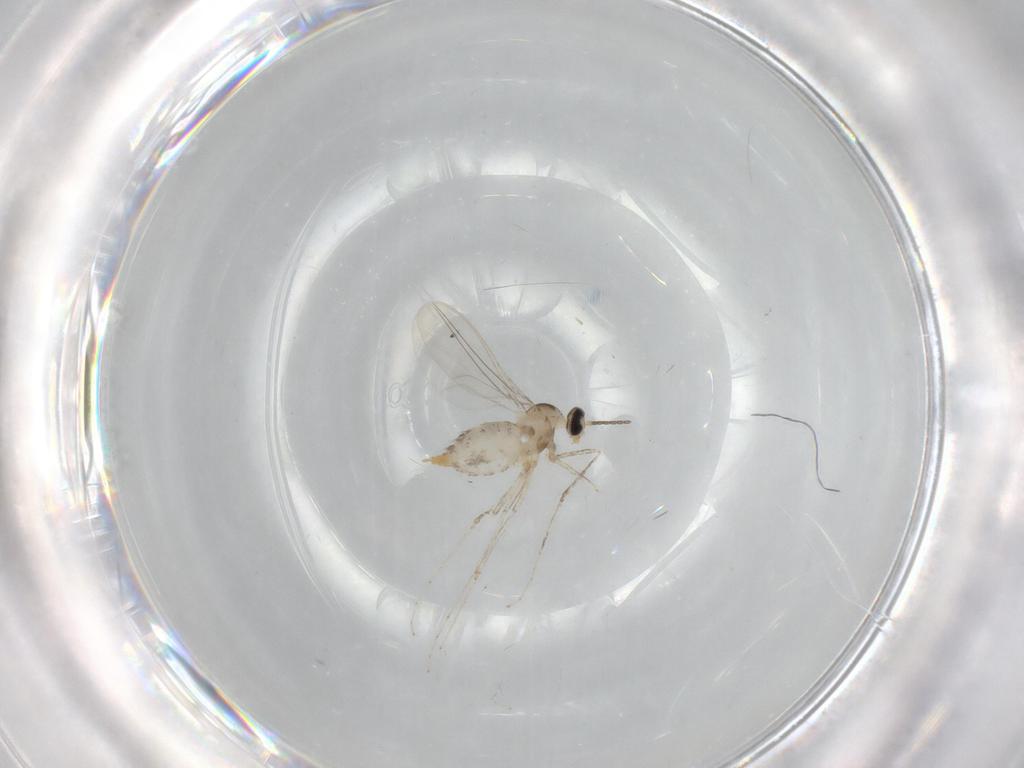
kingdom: Animalia
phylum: Arthropoda
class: Insecta
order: Diptera
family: Cecidomyiidae
